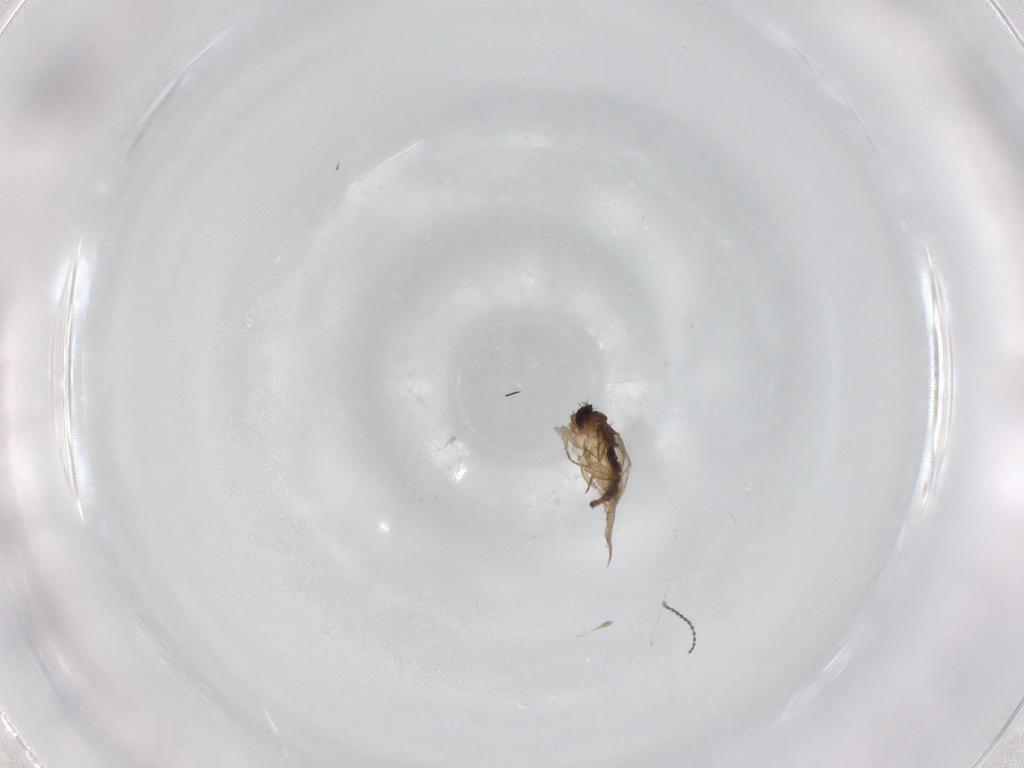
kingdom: Animalia
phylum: Arthropoda
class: Insecta
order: Diptera
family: Phoridae
